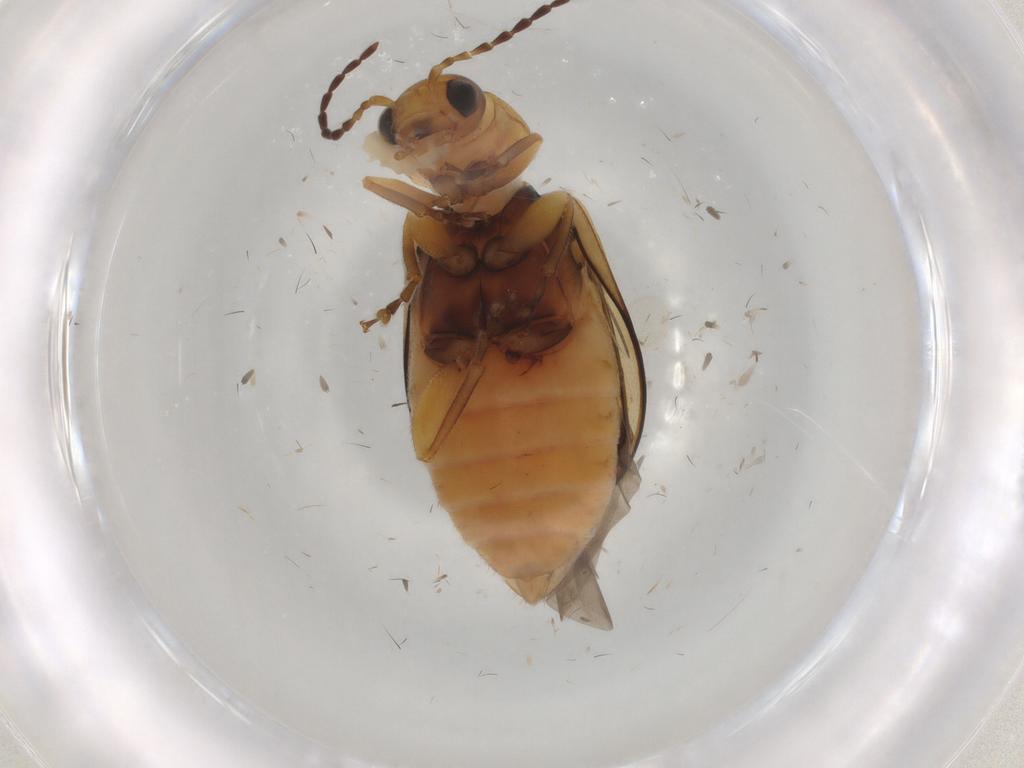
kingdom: Animalia
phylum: Arthropoda
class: Insecta
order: Coleoptera
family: Chrysomelidae
